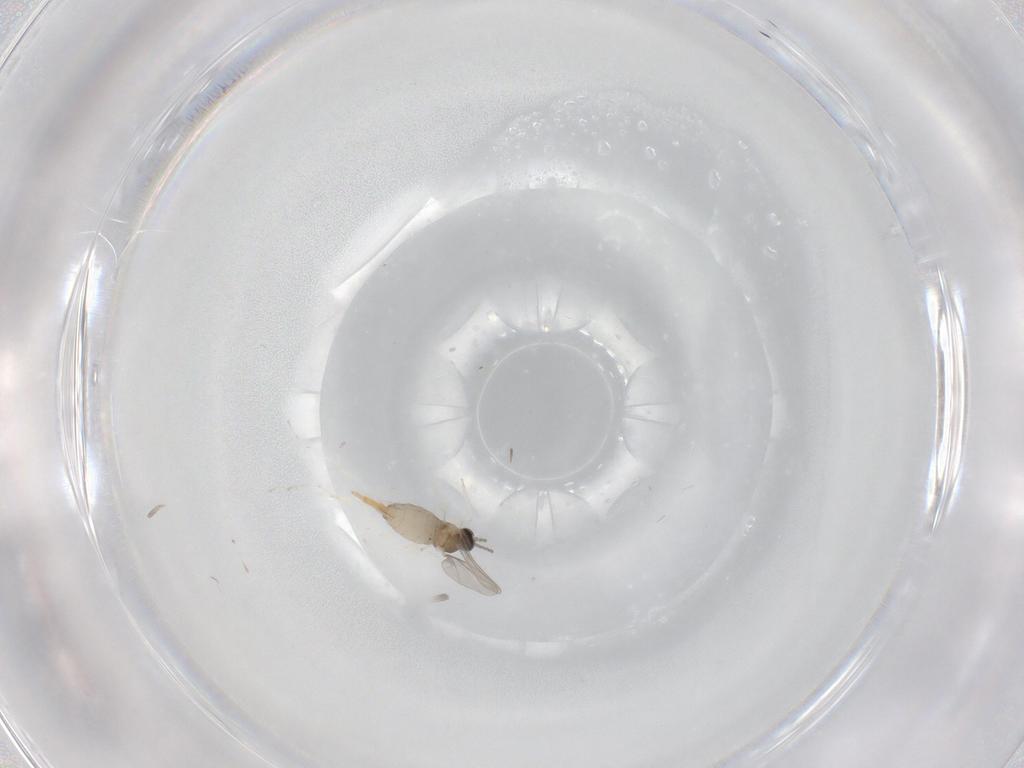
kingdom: Animalia
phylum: Arthropoda
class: Insecta
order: Diptera
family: Cecidomyiidae
